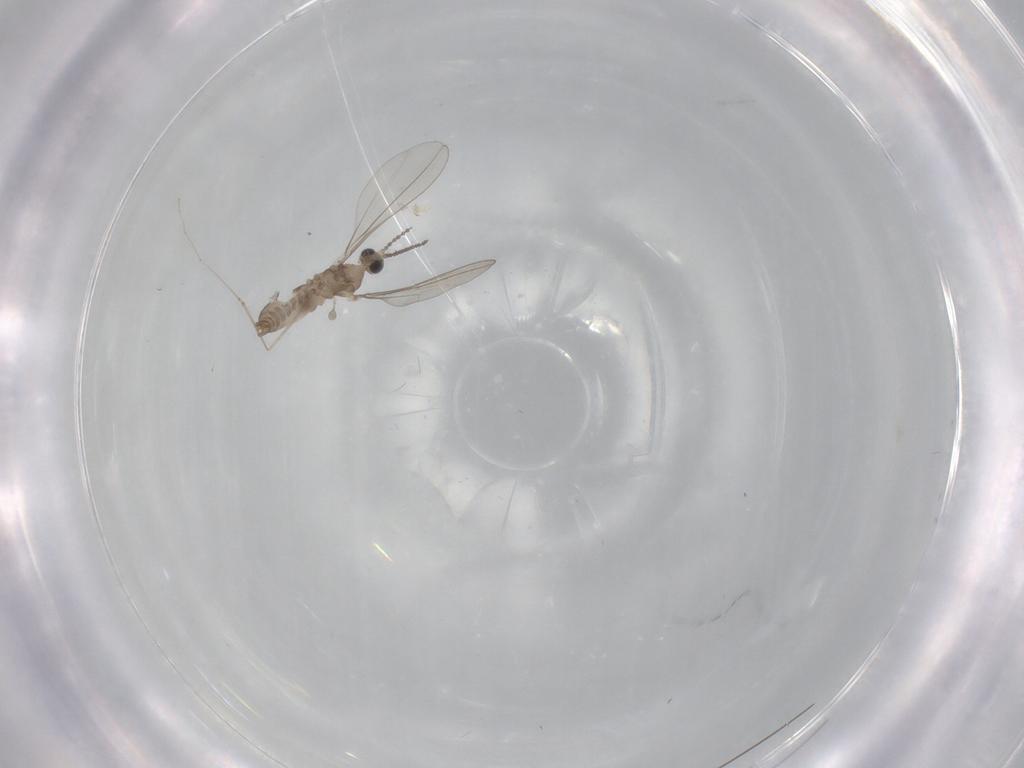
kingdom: Animalia
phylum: Arthropoda
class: Insecta
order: Diptera
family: Cecidomyiidae
